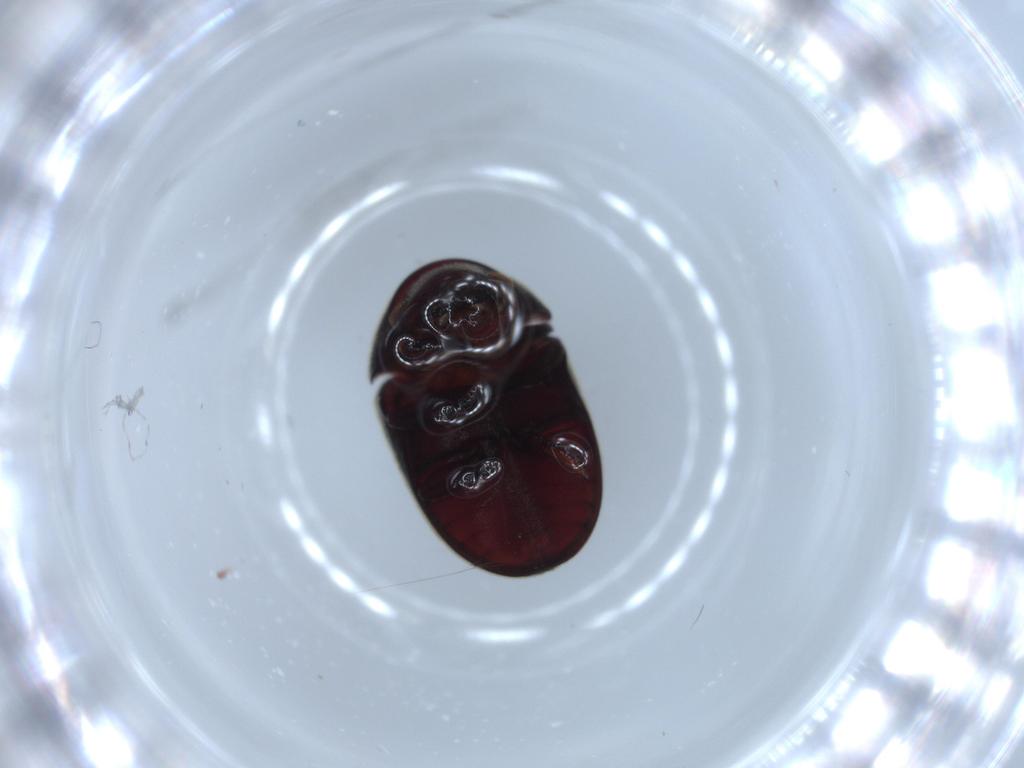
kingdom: Animalia
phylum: Arthropoda
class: Insecta
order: Coleoptera
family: Ptinidae
